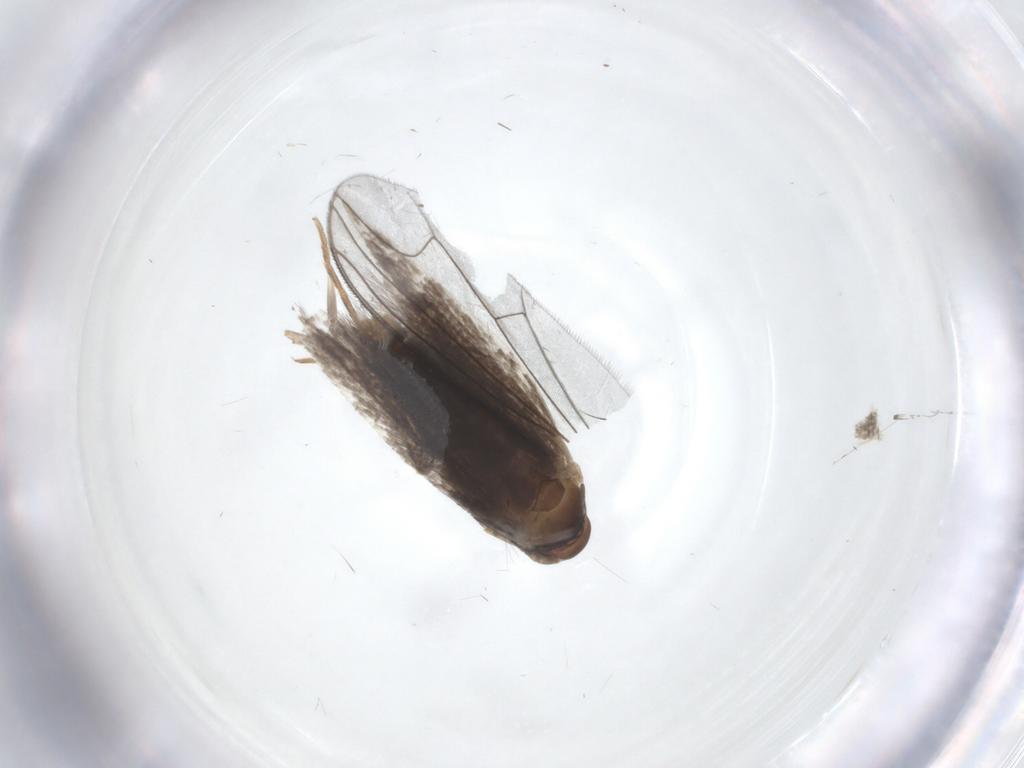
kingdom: Animalia
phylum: Arthropoda
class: Insecta
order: Lepidoptera
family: Elachistidae
